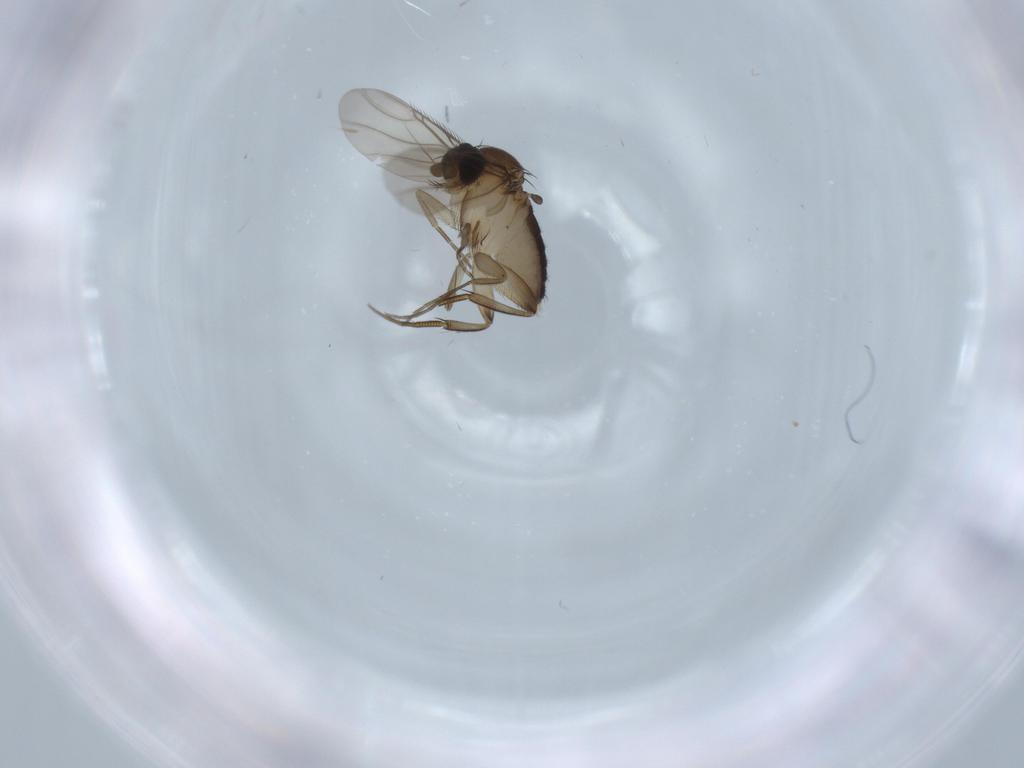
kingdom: Animalia
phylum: Arthropoda
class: Insecta
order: Diptera
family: Phoridae
